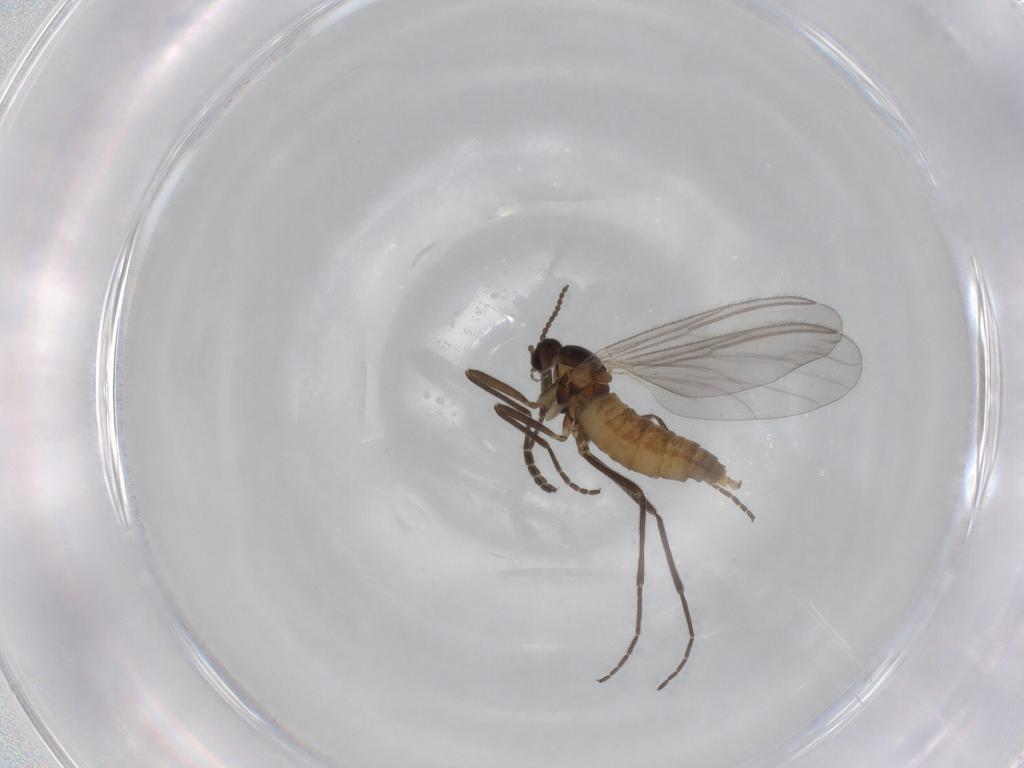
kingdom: Animalia
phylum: Arthropoda
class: Insecta
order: Diptera
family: Cecidomyiidae
